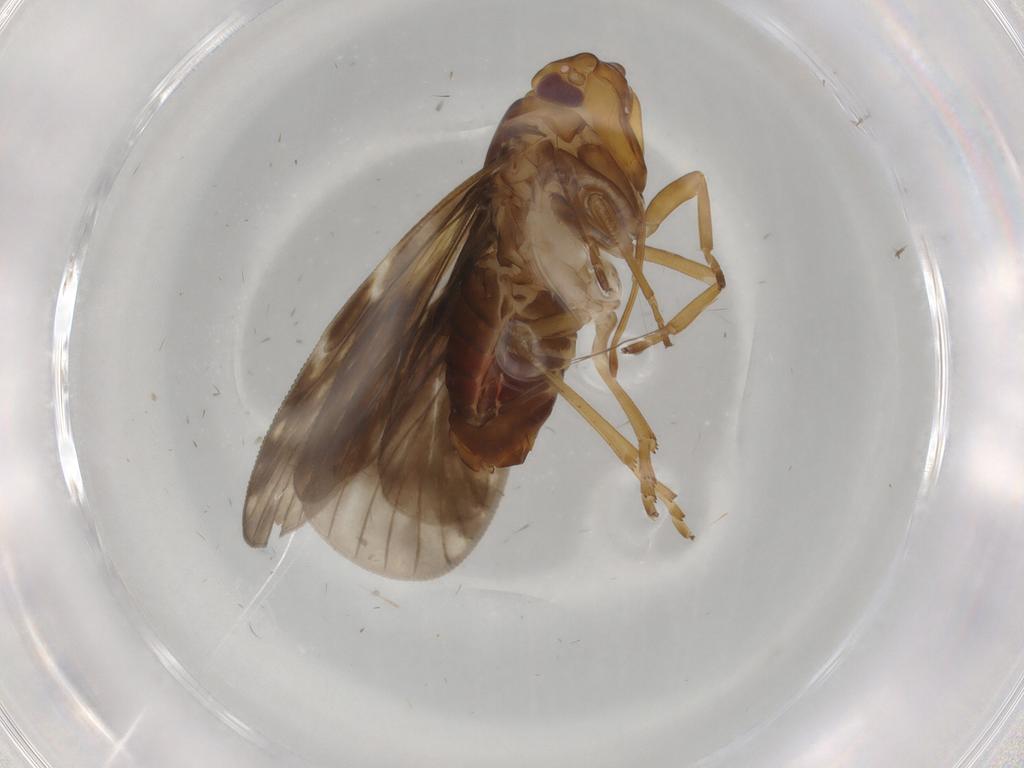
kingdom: Animalia
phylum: Arthropoda
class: Insecta
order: Hemiptera
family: Cixiidae
